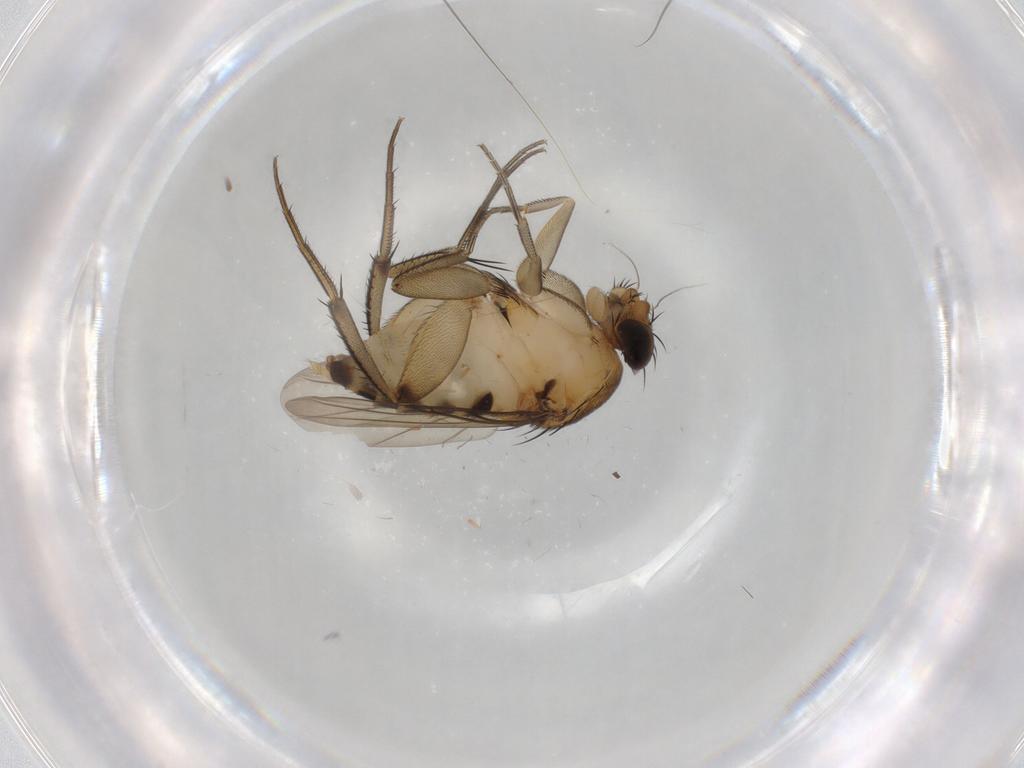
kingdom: Animalia
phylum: Arthropoda
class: Insecta
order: Diptera
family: Phoridae
